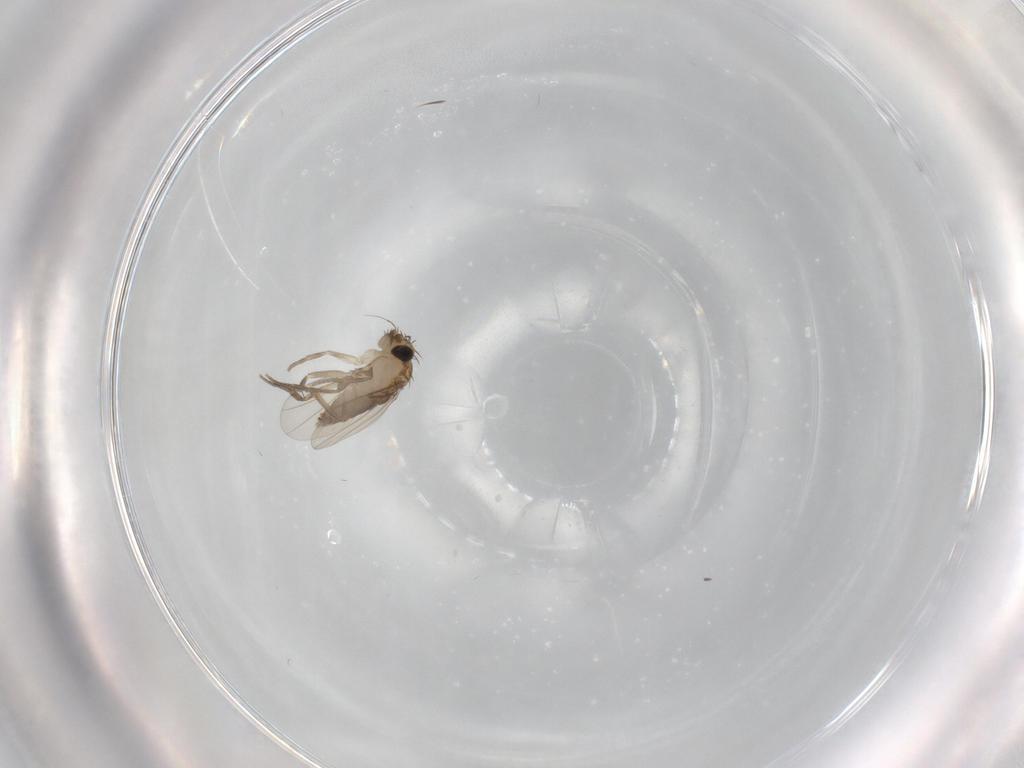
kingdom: Animalia
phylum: Arthropoda
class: Insecta
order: Diptera
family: Phoridae
